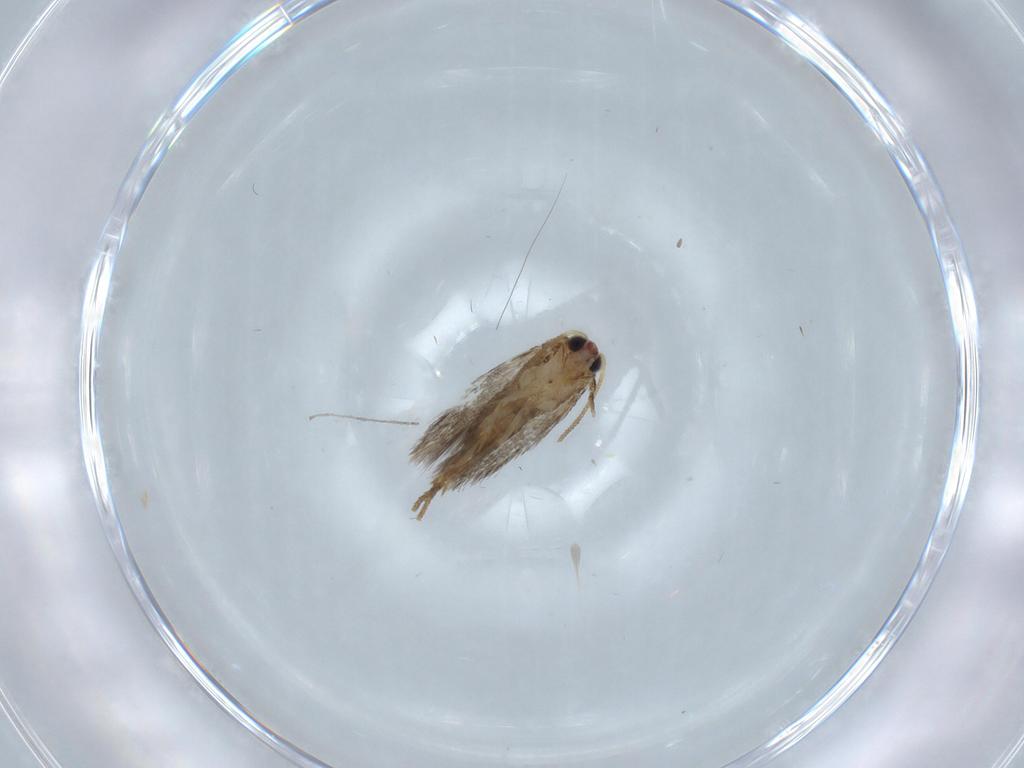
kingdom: Animalia
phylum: Arthropoda
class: Insecta
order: Lepidoptera
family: Nepticulidae
